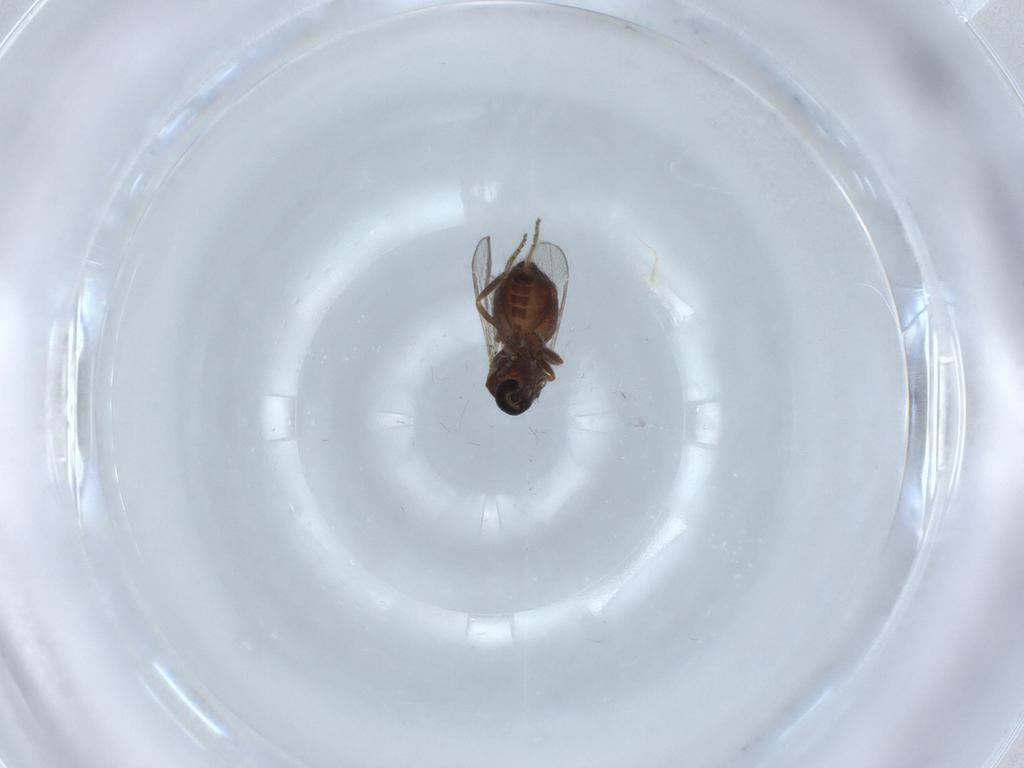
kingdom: Animalia
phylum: Arthropoda
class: Insecta
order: Diptera
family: Ceratopogonidae
